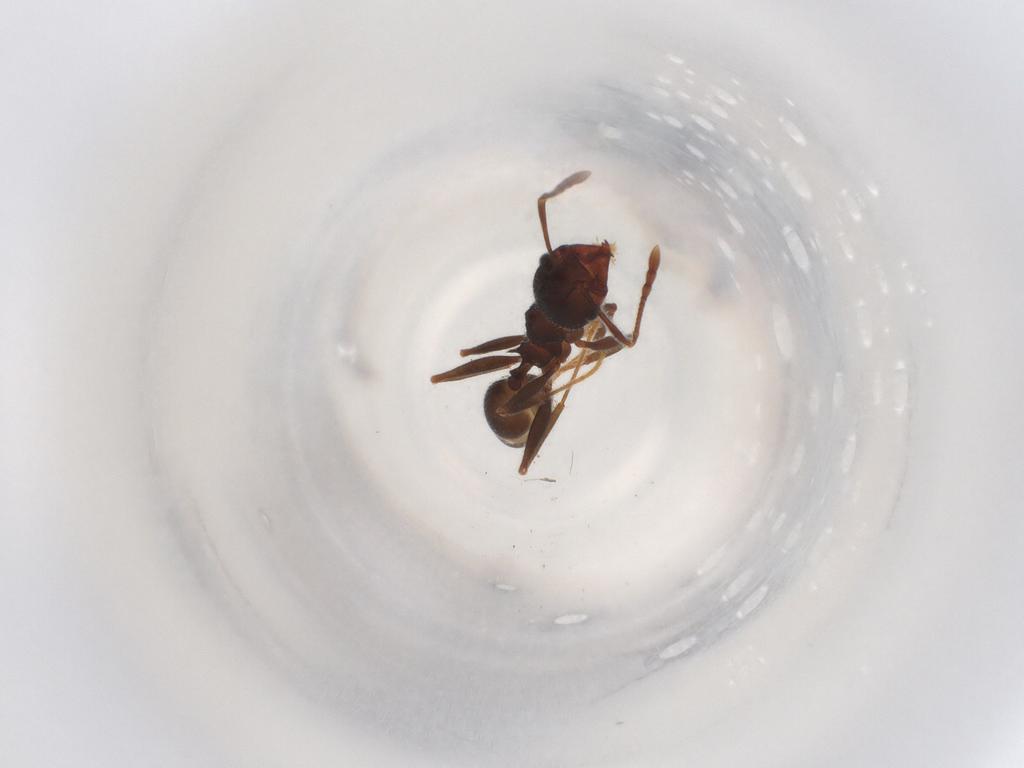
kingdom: Animalia
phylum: Arthropoda
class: Insecta
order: Hymenoptera
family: Formicidae
